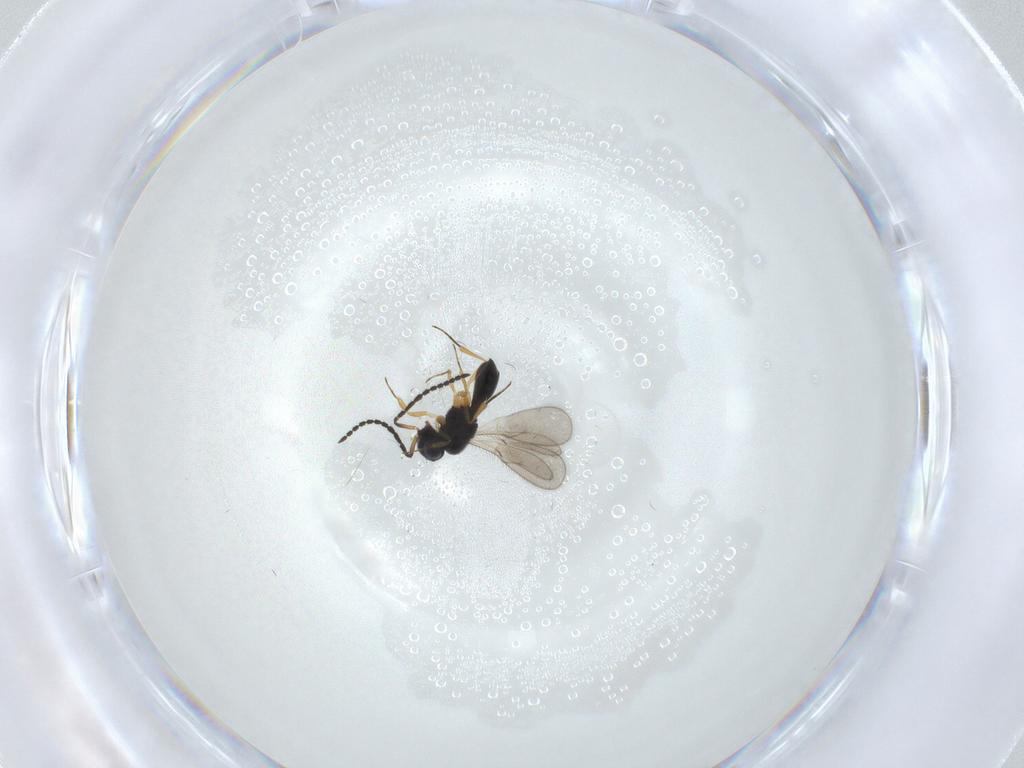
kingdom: Animalia
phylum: Arthropoda
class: Insecta
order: Hymenoptera
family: Scelionidae
